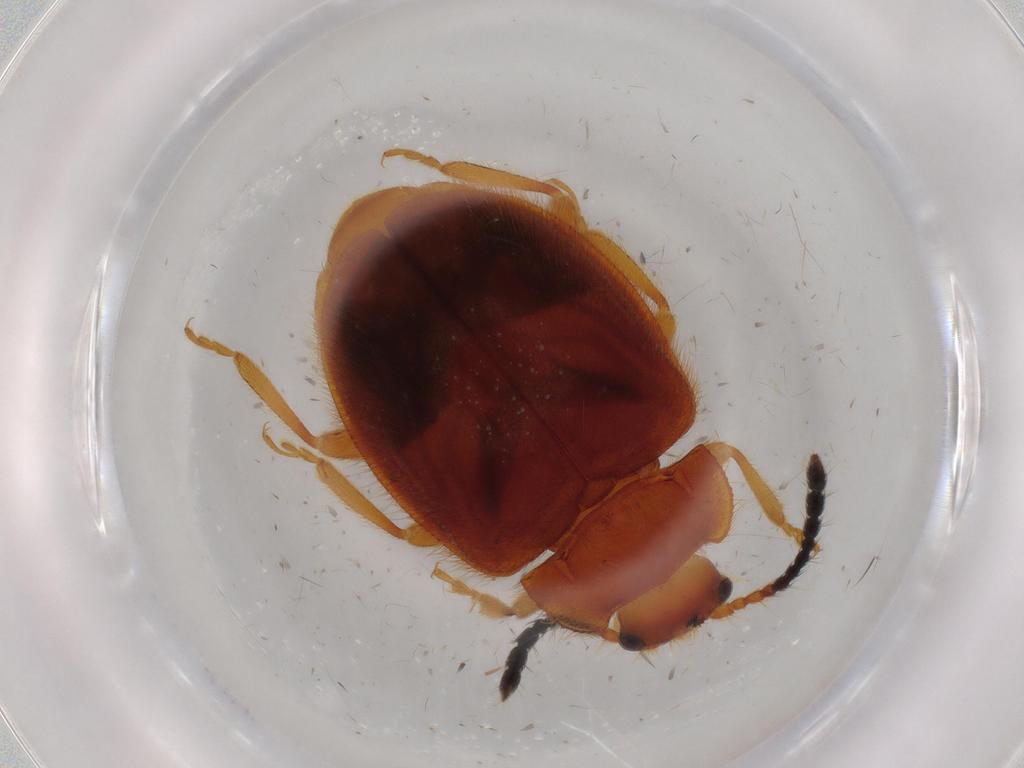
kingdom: Animalia
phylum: Arthropoda
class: Insecta
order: Coleoptera
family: Endomychidae
